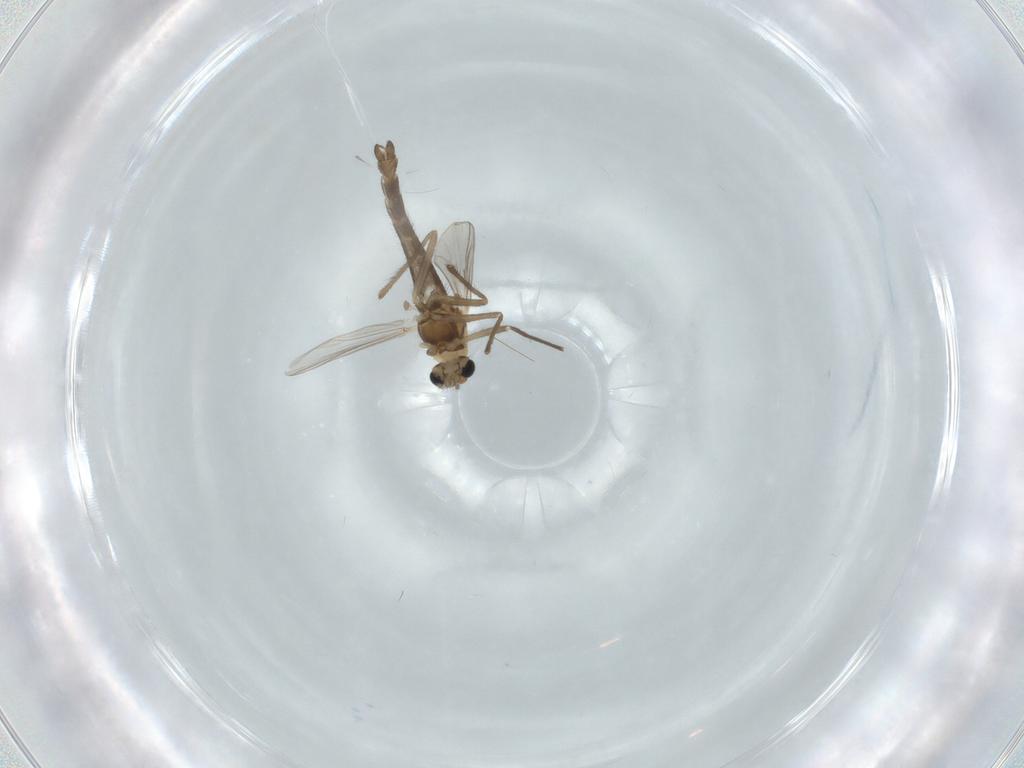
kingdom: Animalia
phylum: Arthropoda
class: Insecta
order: Diptera
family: Chironomidae
